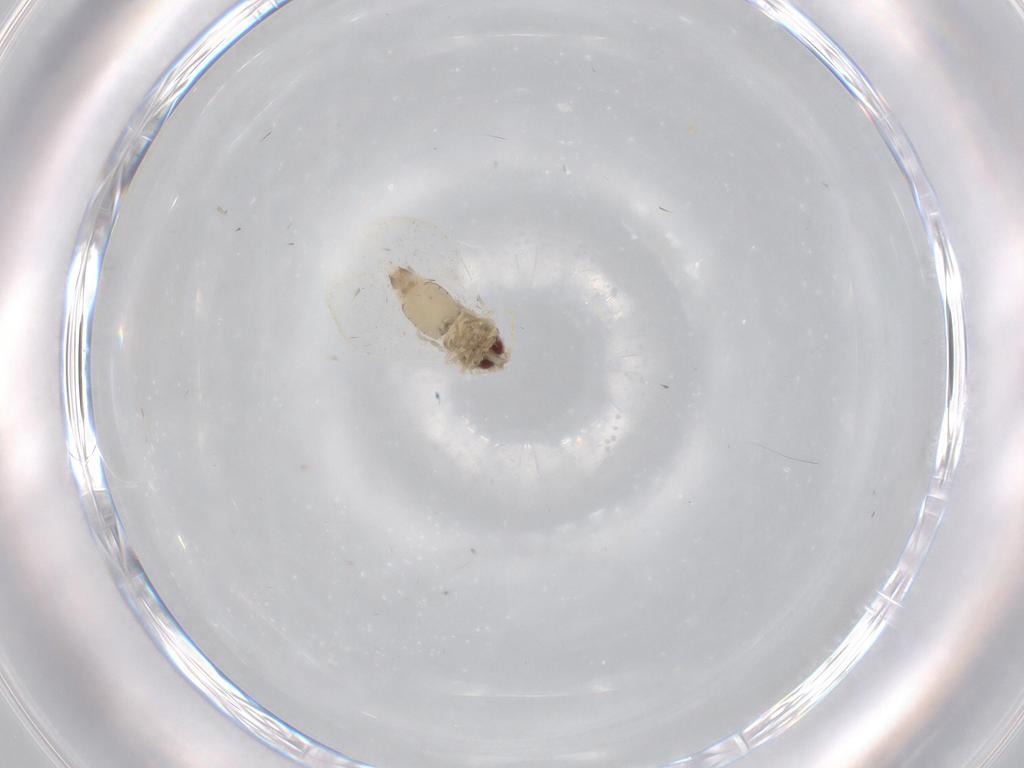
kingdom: Animalia
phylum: Arthropoda
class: Insecta
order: Hemiptera
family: Aleyrodidae
